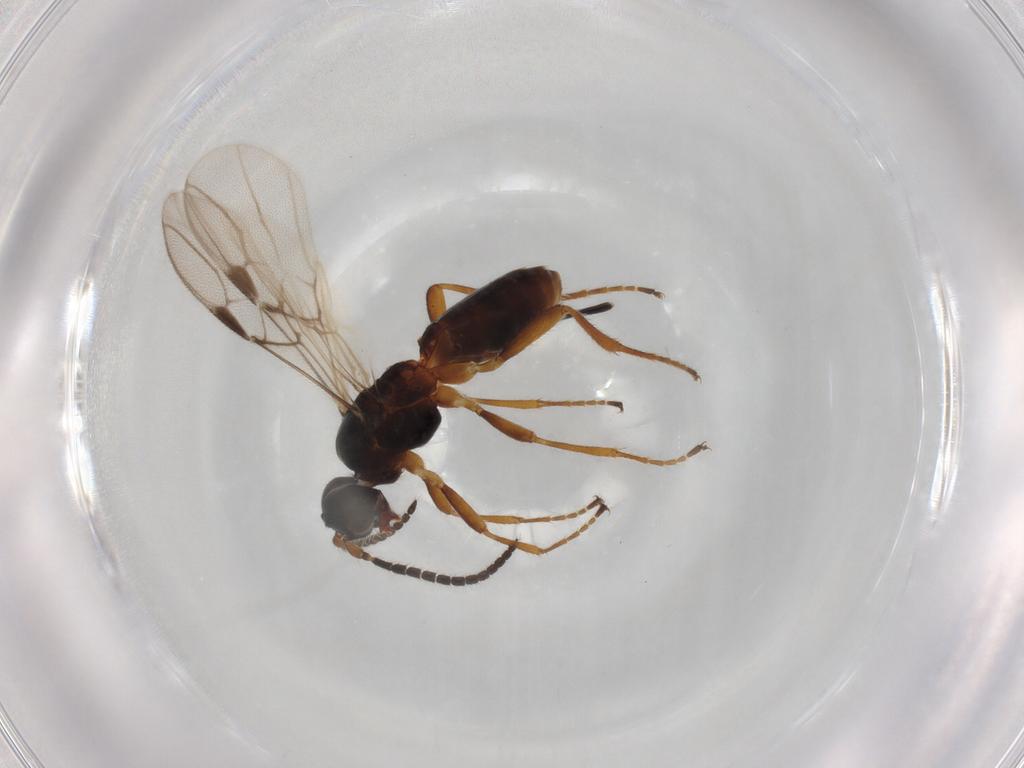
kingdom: Animalia
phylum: Arthropoda
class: Insecta
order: Hymenoptera
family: Braconidae
